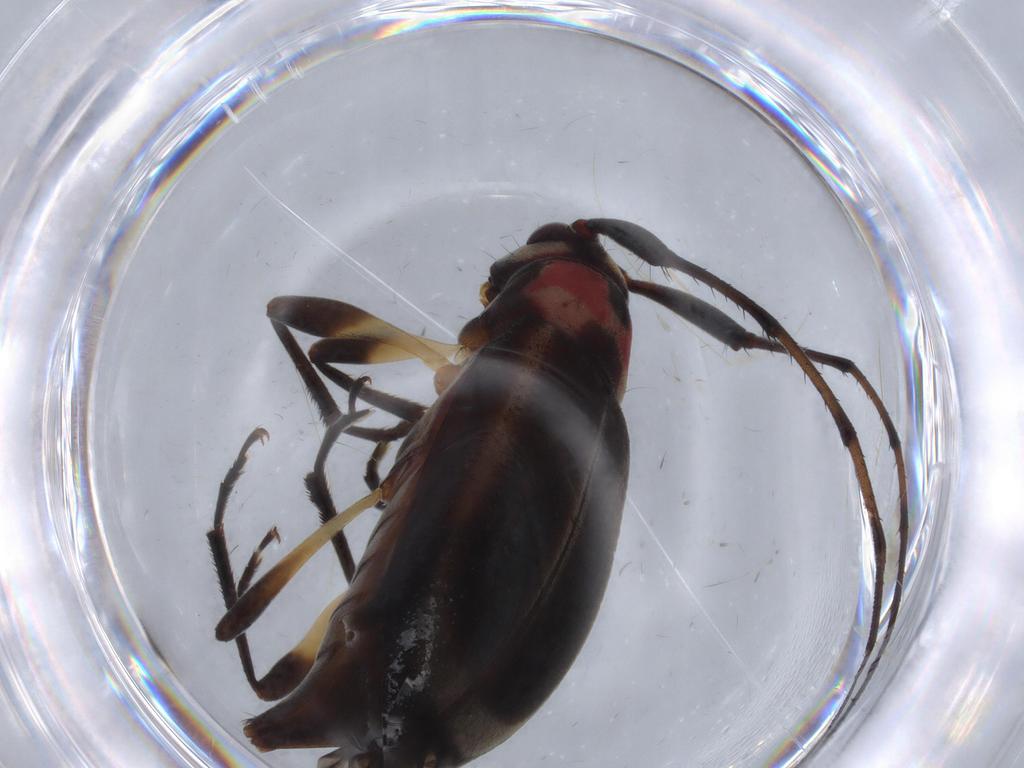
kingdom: Animalia
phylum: Arthropoda
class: Insecta
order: Coleoptera
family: Cerambycidae
